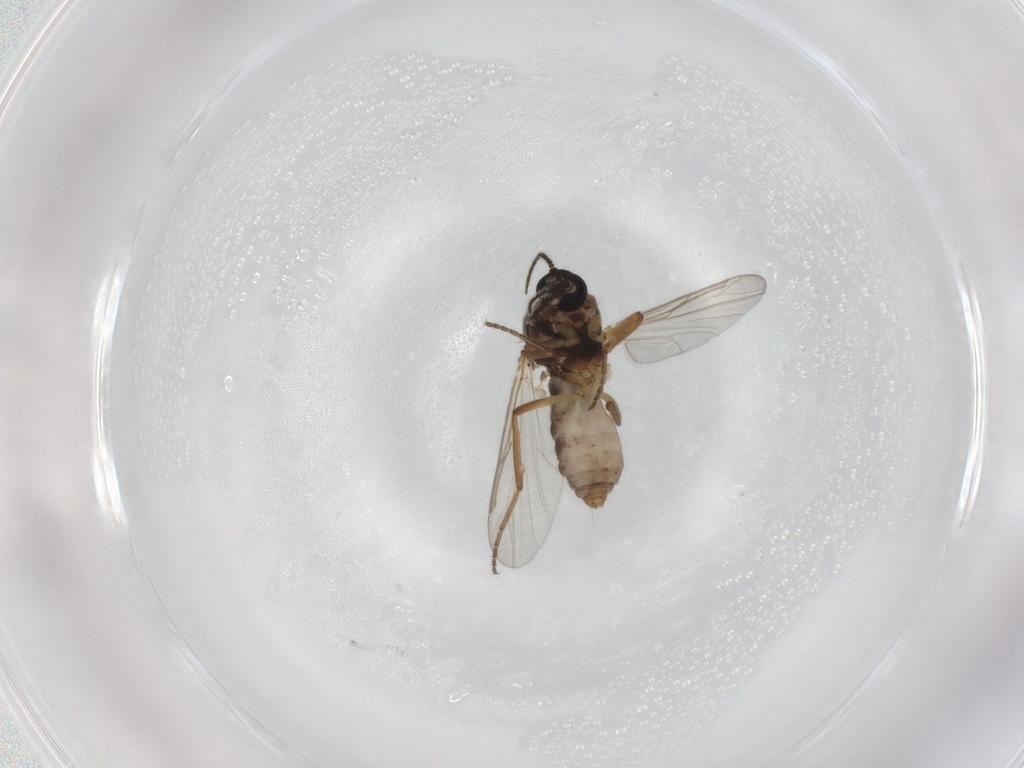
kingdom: Animalia
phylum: Arthropoda
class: Insecta
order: Diptera
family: Ceratopogonidae
